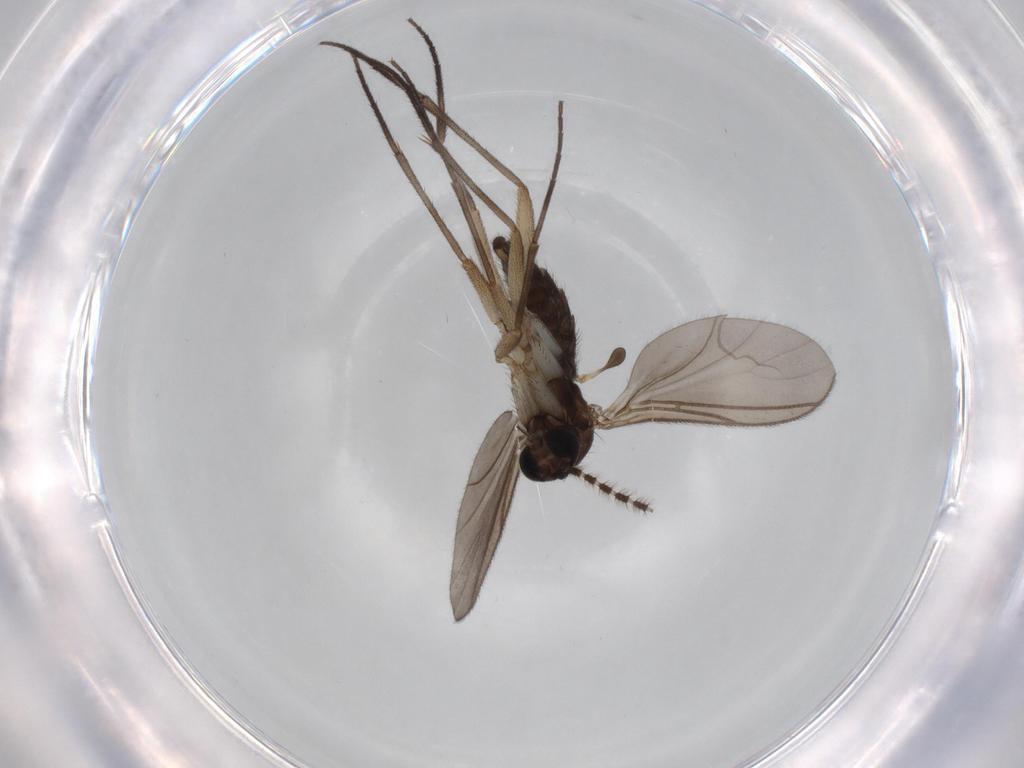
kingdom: Animalia
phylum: Arthropoda
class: Insecta
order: Diptera
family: Sciaridae
